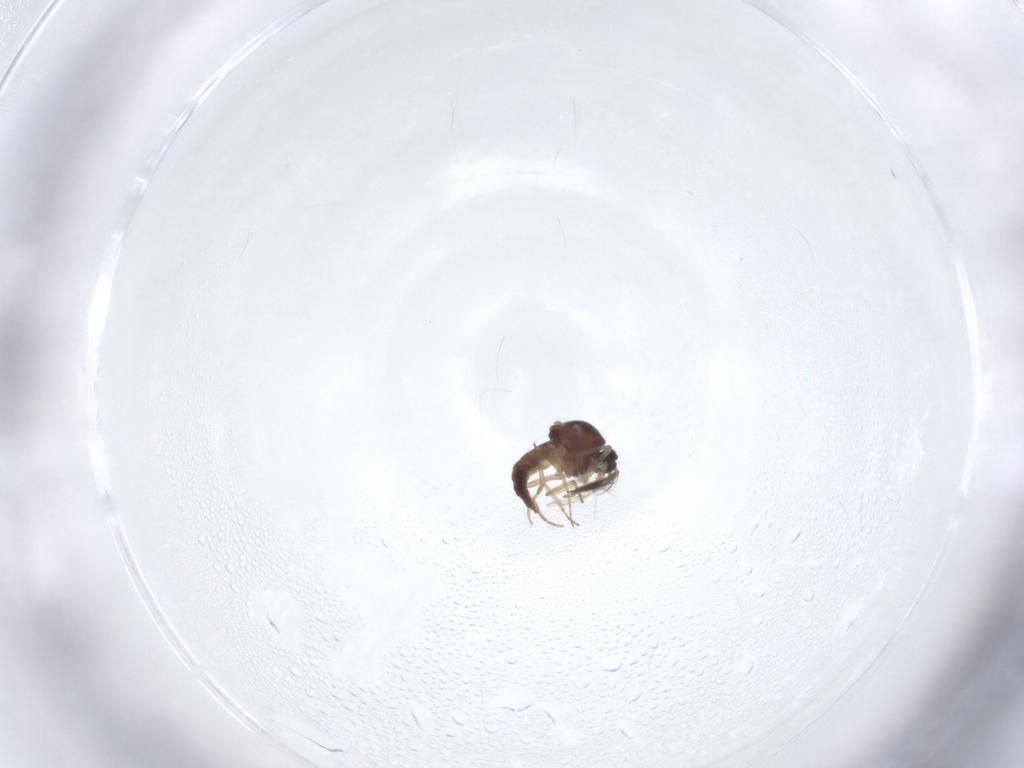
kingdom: Animalia
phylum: Arthropoda
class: Insecta
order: Diptera
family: Ceratopogonidae
